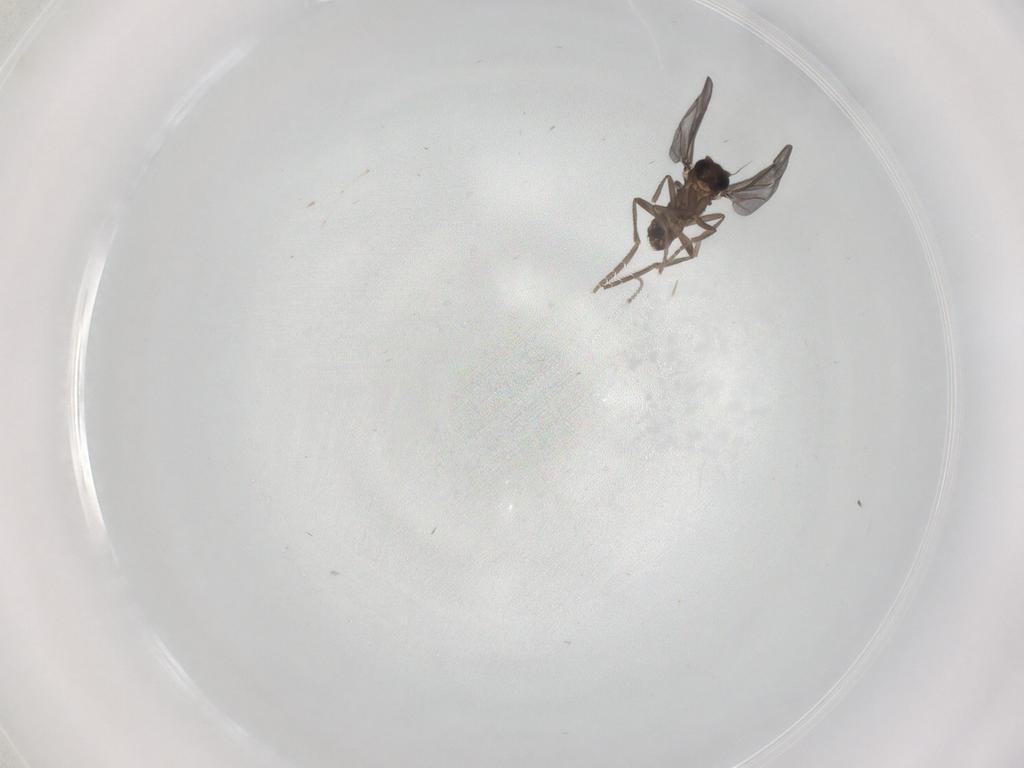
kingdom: Animalia
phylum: Arthropoda
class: Insecta
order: Diptera
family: Phoridae
